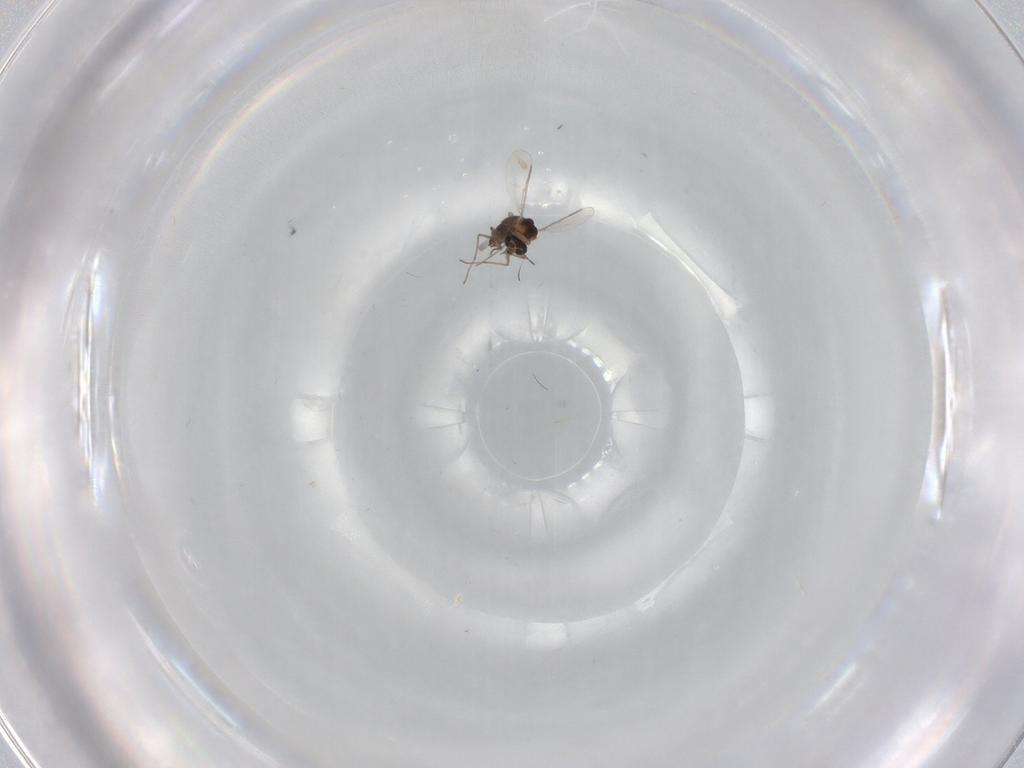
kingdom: Animalia
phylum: Arthropoda
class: Insecta
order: Diptera
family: Chironomidae
